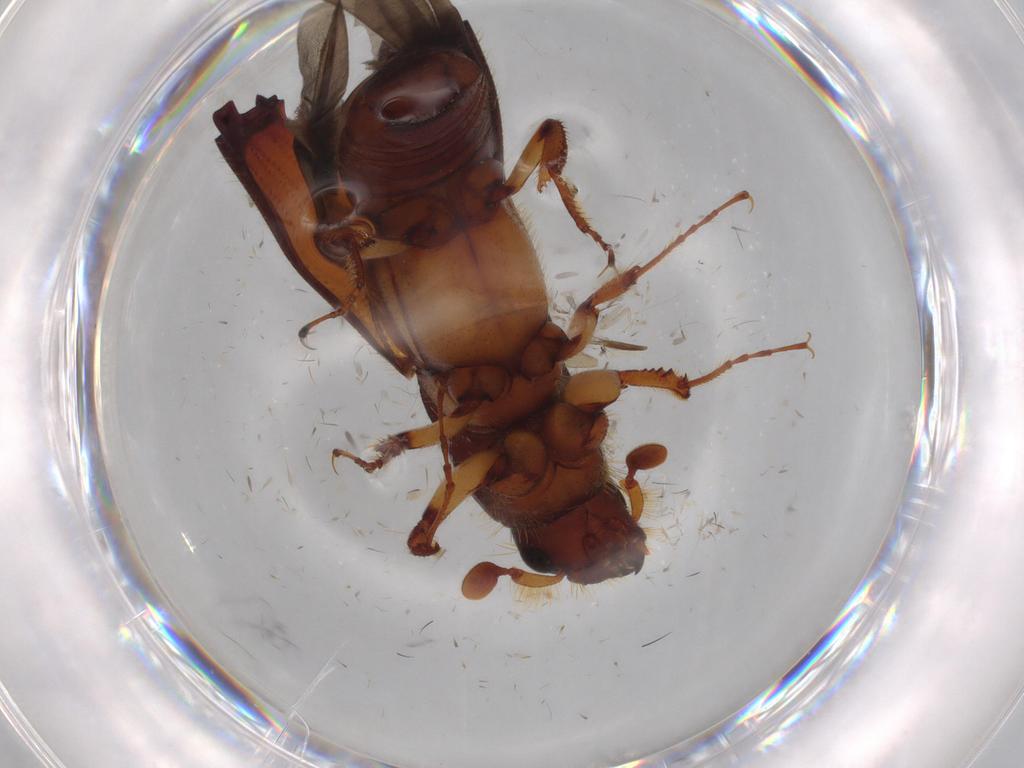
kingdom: Animalia
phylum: Arthropoda
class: Insecta
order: Coleoptera
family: Curculionidae
